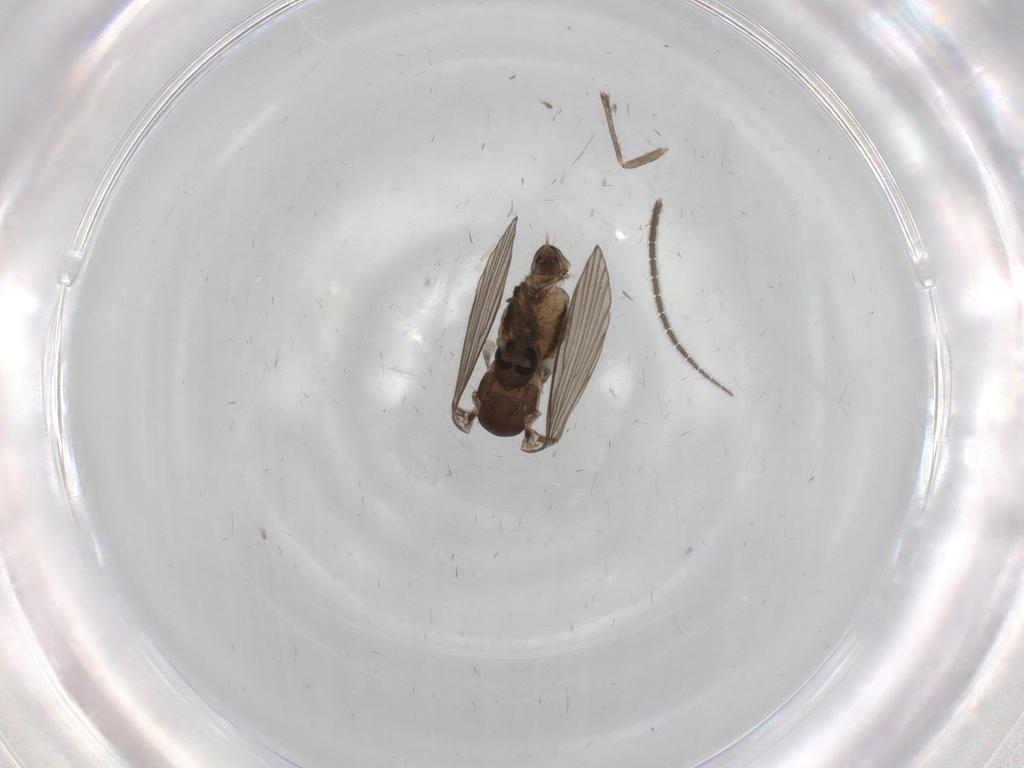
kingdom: Animalia
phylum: Arthropoda
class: Insecta
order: Diptera
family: Psychodidae
